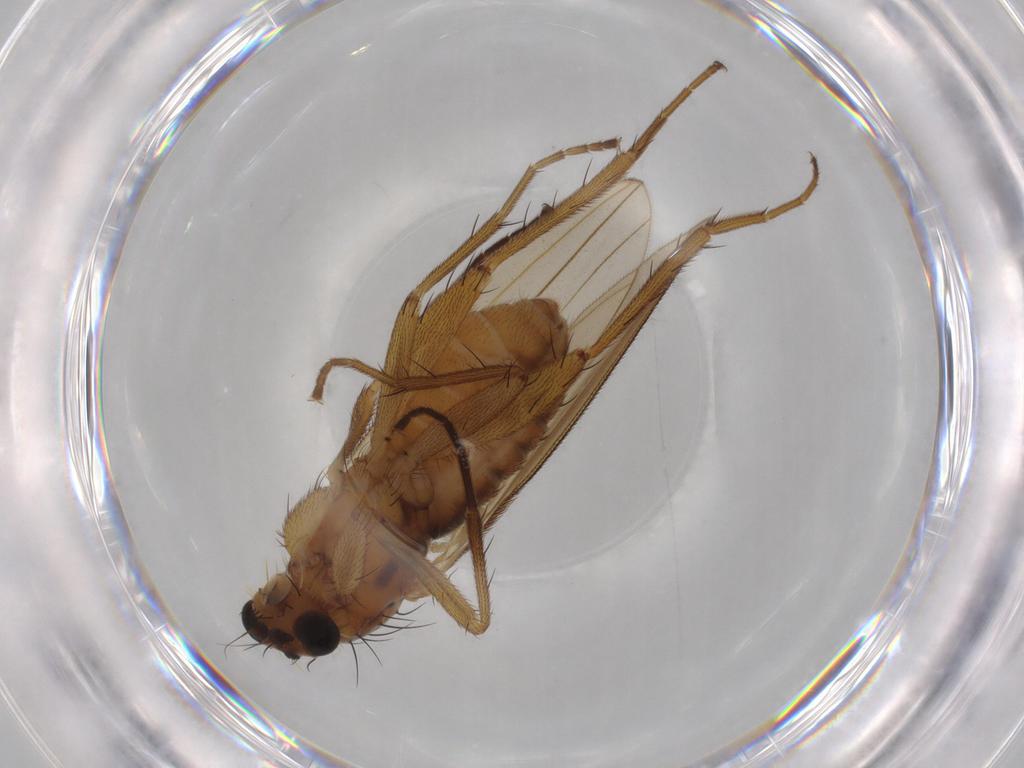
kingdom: Animalia
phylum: Arthropoda
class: Insecta
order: Diptera
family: Lonchopteridae
